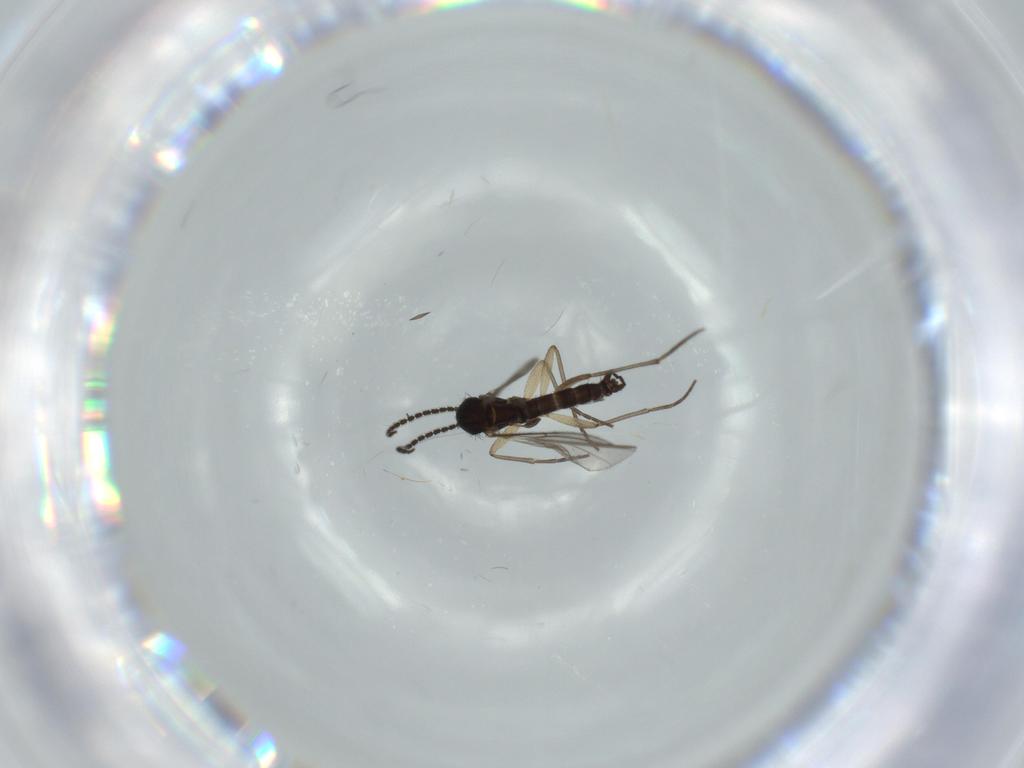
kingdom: Animalia
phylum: Arthropoda
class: Insecta
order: Diptera
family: Sciaridae
